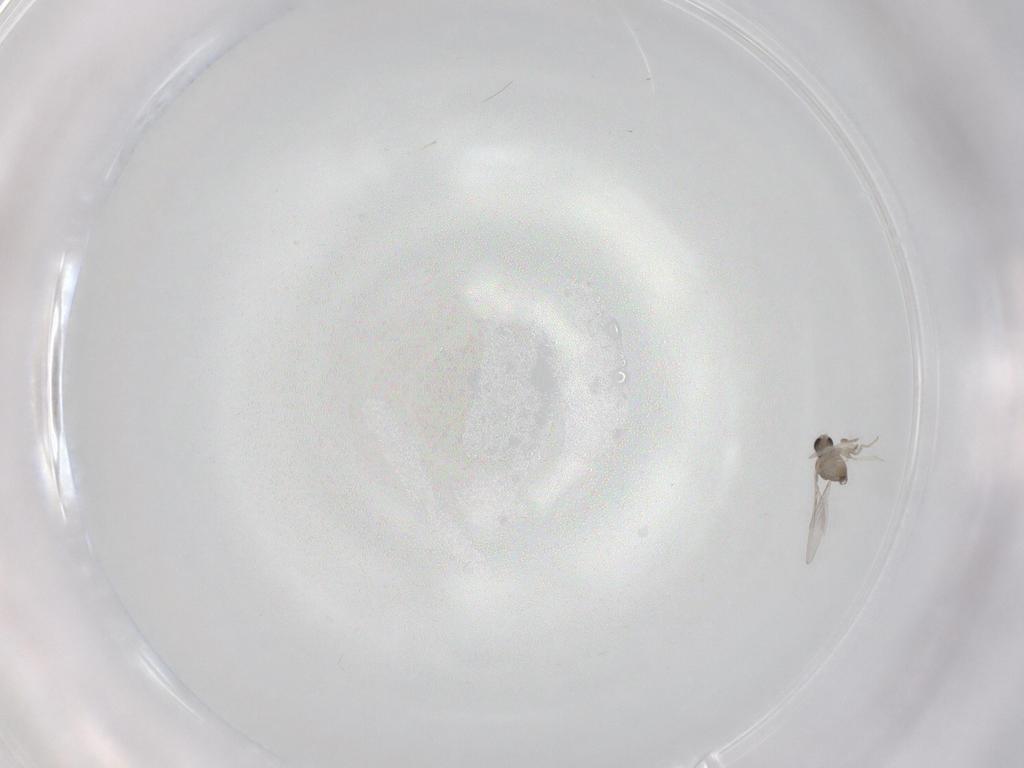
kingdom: Animalia
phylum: Arthropoda
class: Insecta
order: Diptera
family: Cecidomyiidae
